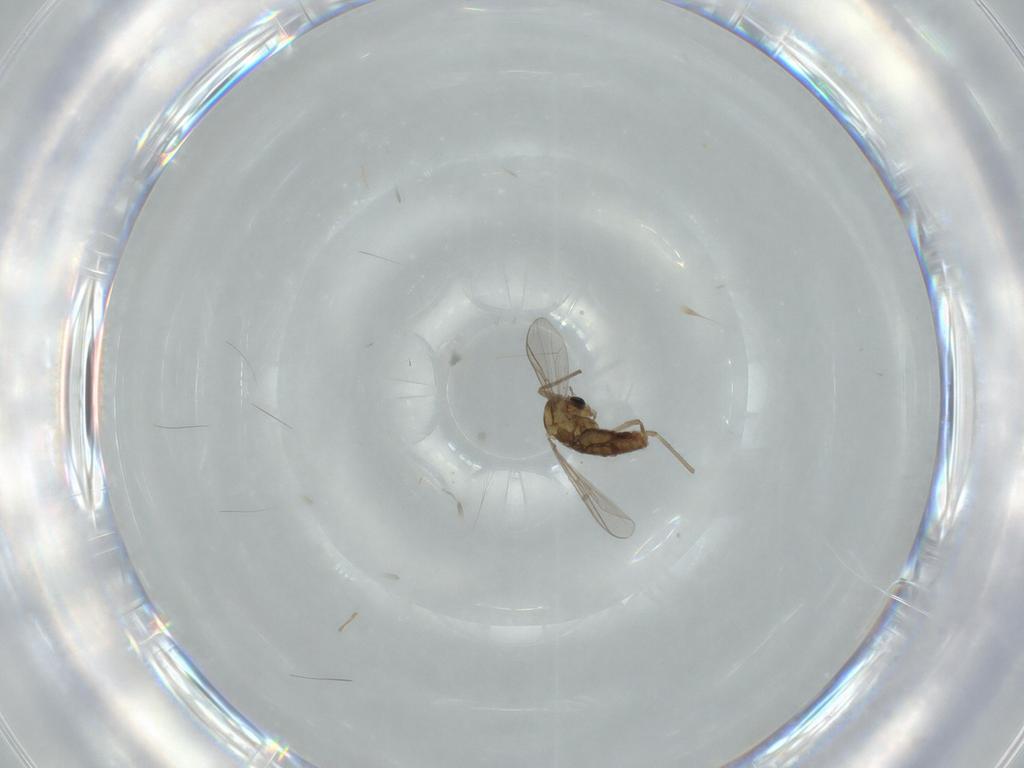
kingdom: Animalia
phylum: Arthropoda
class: Insecta
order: Diptera
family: Chironomidae
